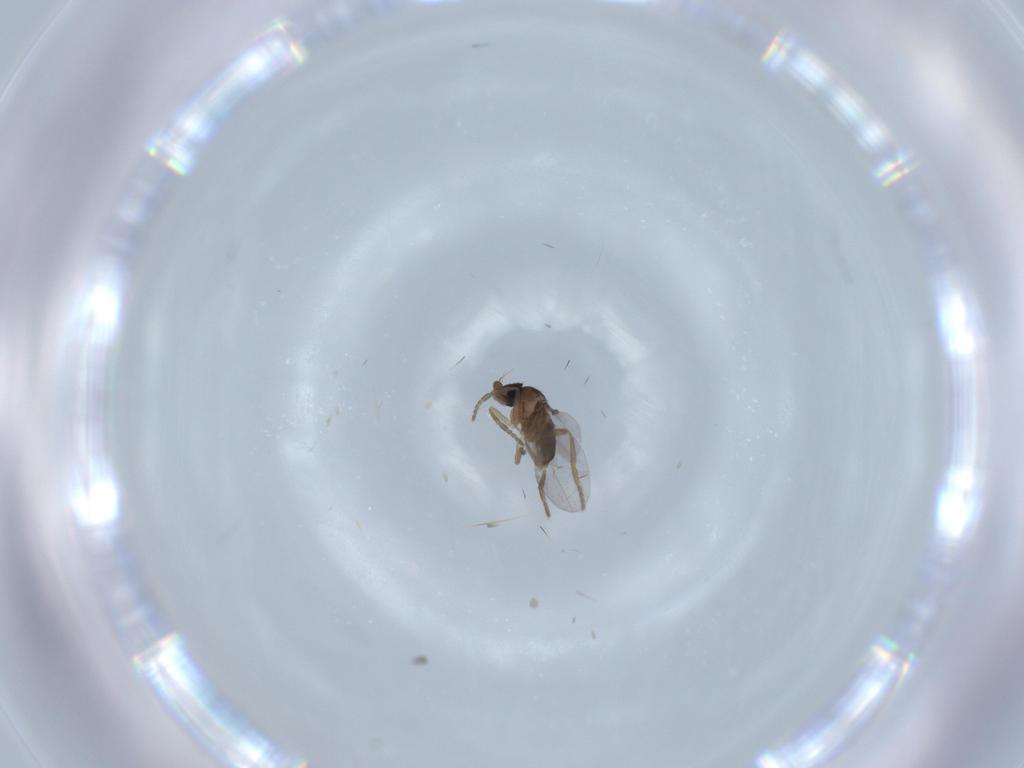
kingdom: Animalia
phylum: Arthropoda
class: Insecta
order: Diptera
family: Phoridae
